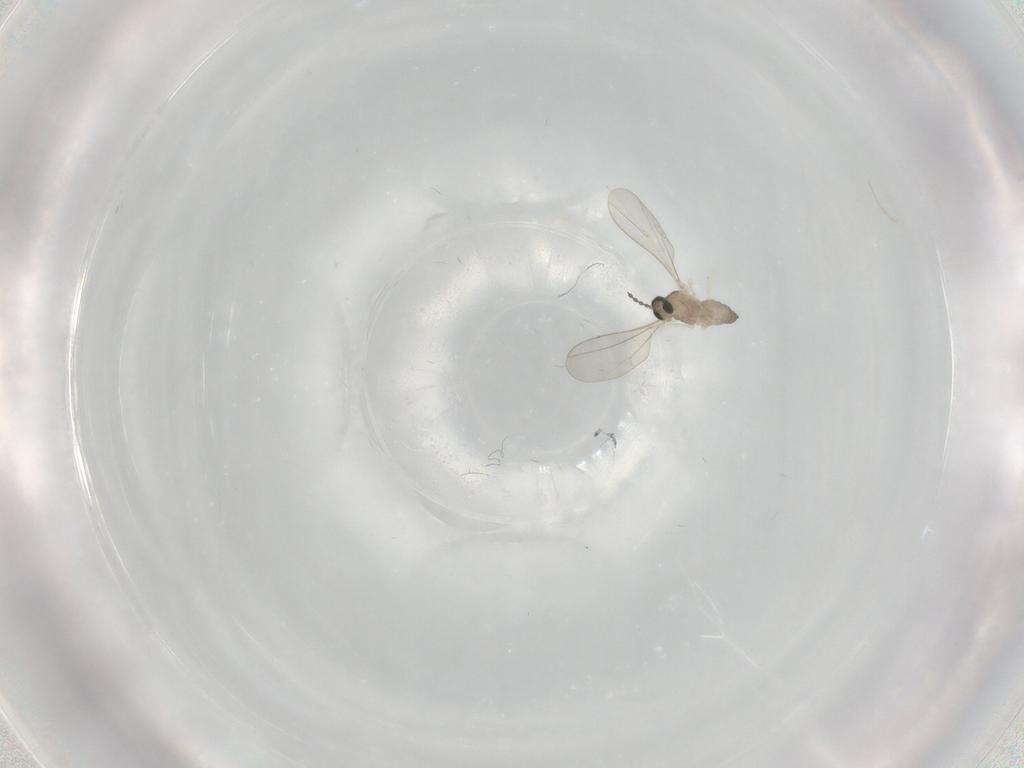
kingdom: Animalia
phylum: Arthropoda
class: Insecta
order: Diptera
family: Cecidomyiidae
